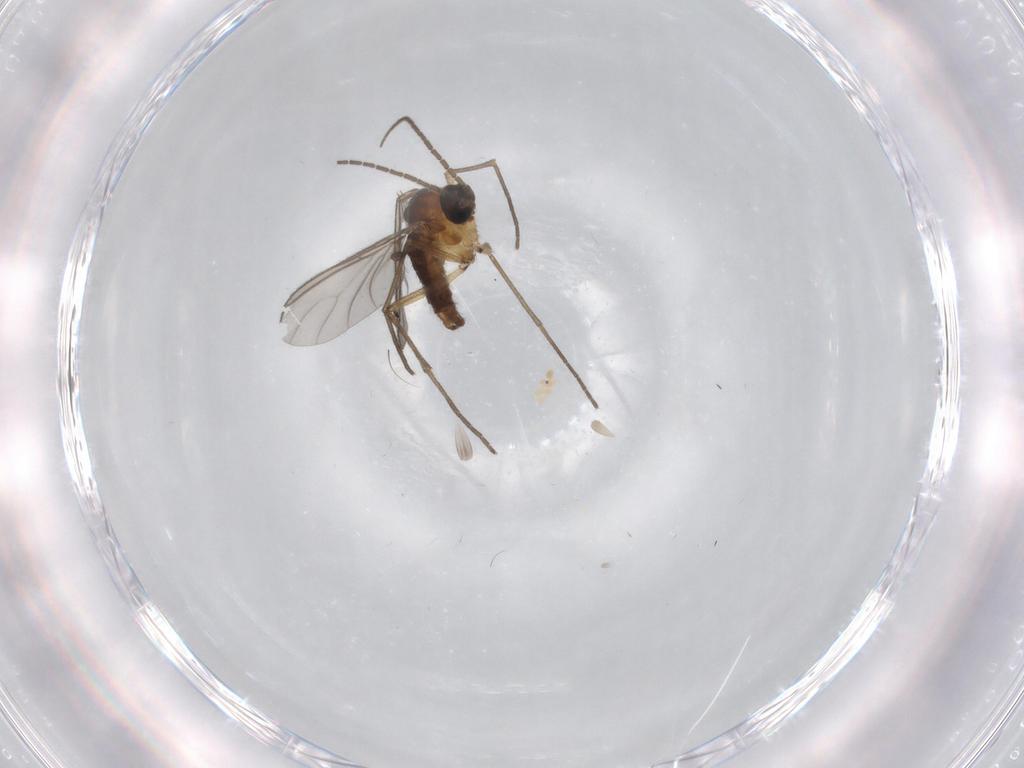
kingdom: Animalia
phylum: Arthropoda
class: Insecta
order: Diptera
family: Sciaridae
